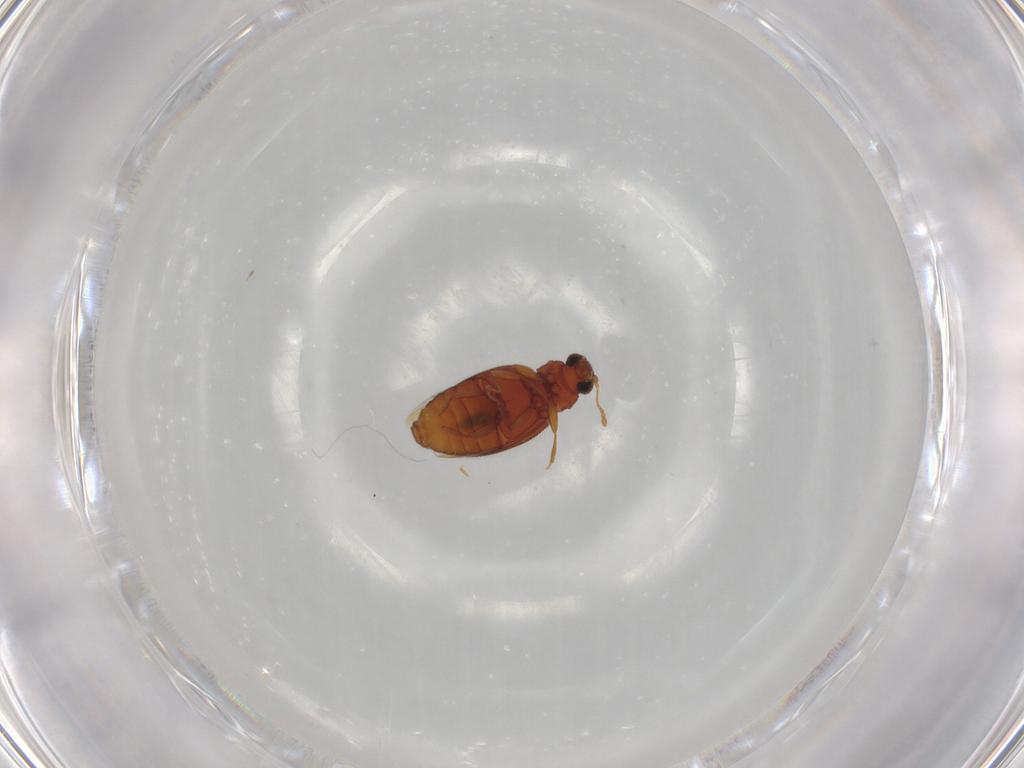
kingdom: Animalia
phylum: Arthropoda
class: Insecta
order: Coleoptera
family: Latridiidae
